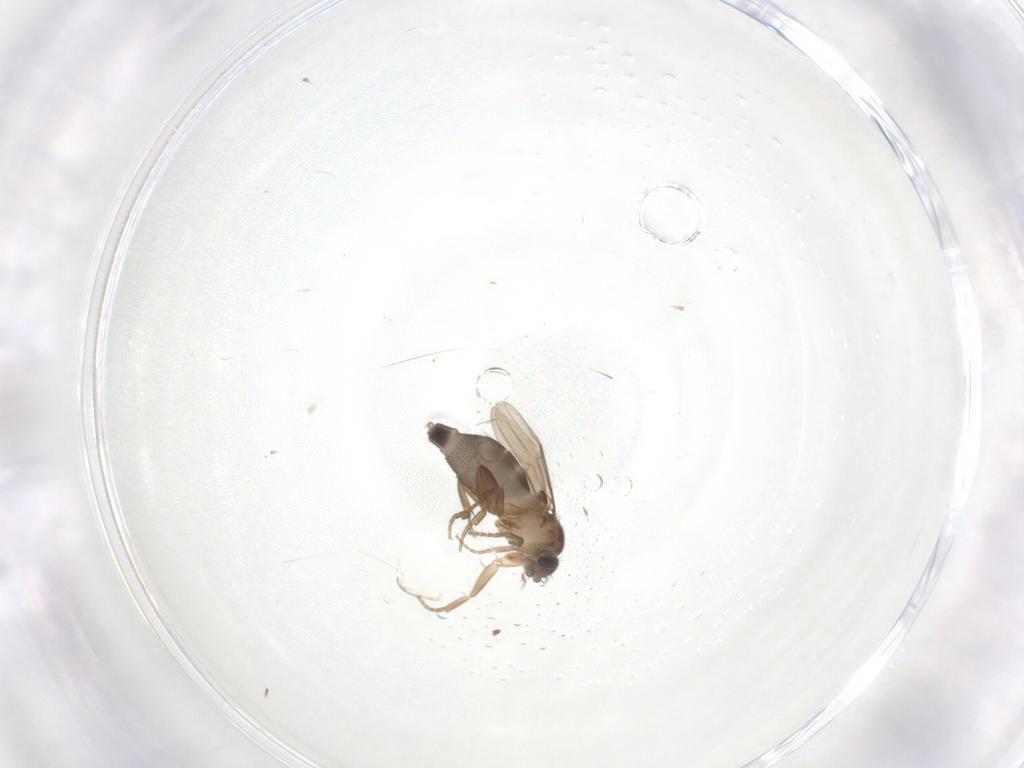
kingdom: Animalia
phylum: Arthropoda
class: Insecta
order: Diptera
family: Phoridae
